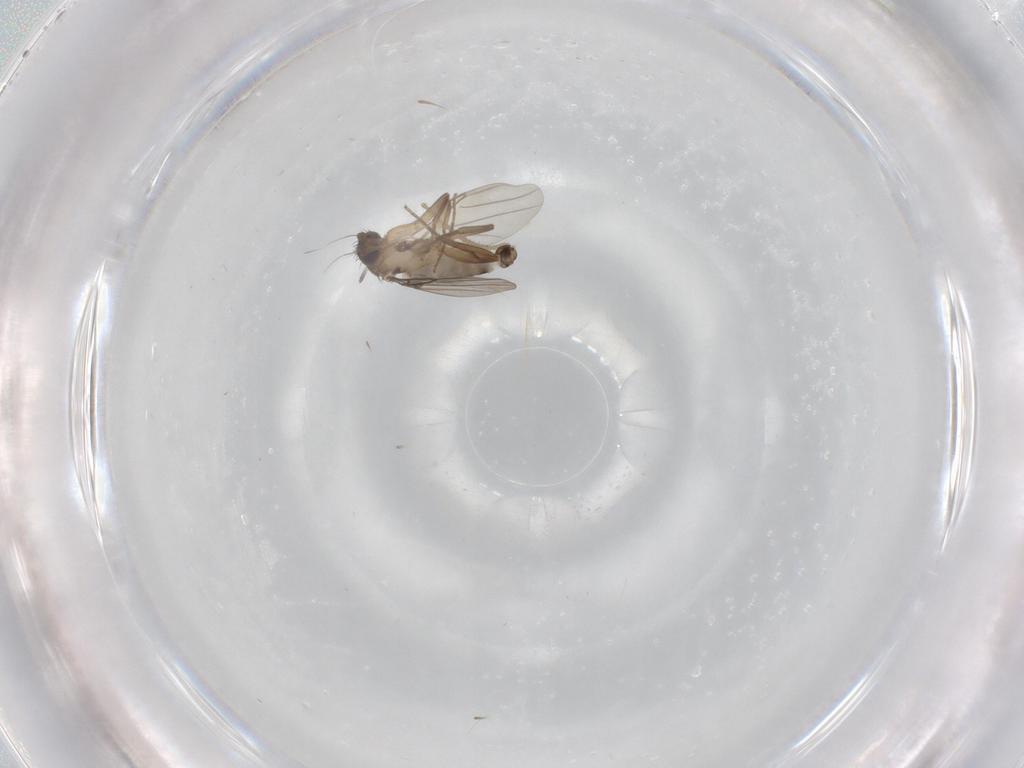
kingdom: Animalia
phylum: Arthropoda
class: Insecta
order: Diptera
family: Phoridae
